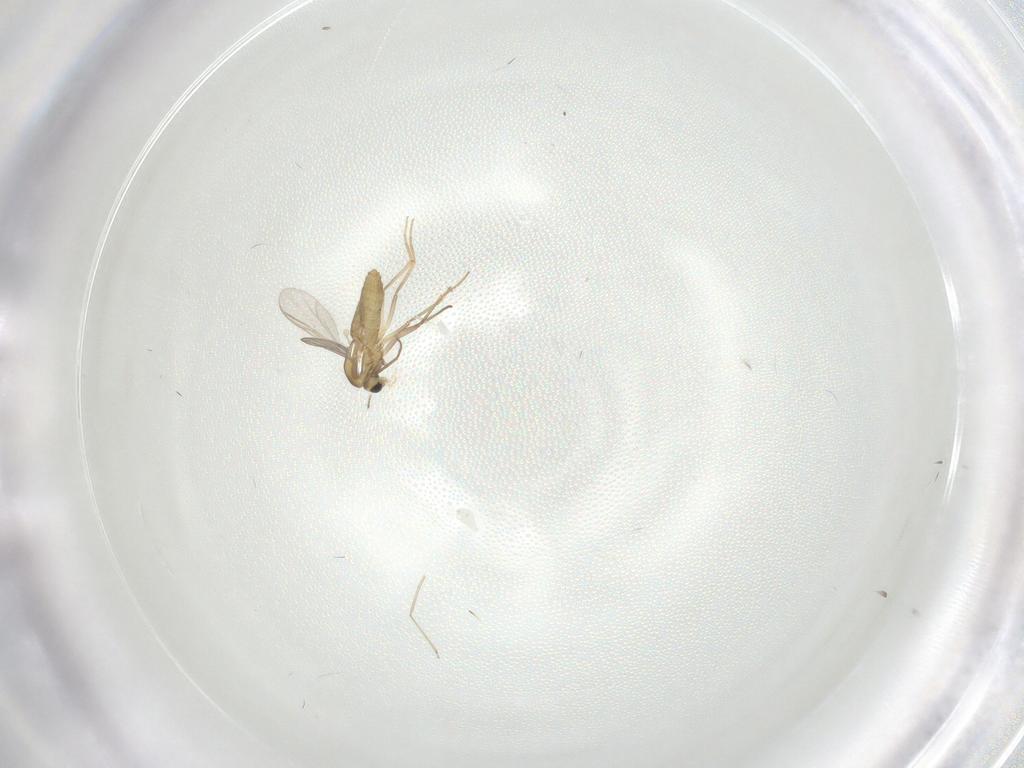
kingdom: Animalia
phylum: Arthropoda
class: Insecta
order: Diptera
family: Chironomidae
